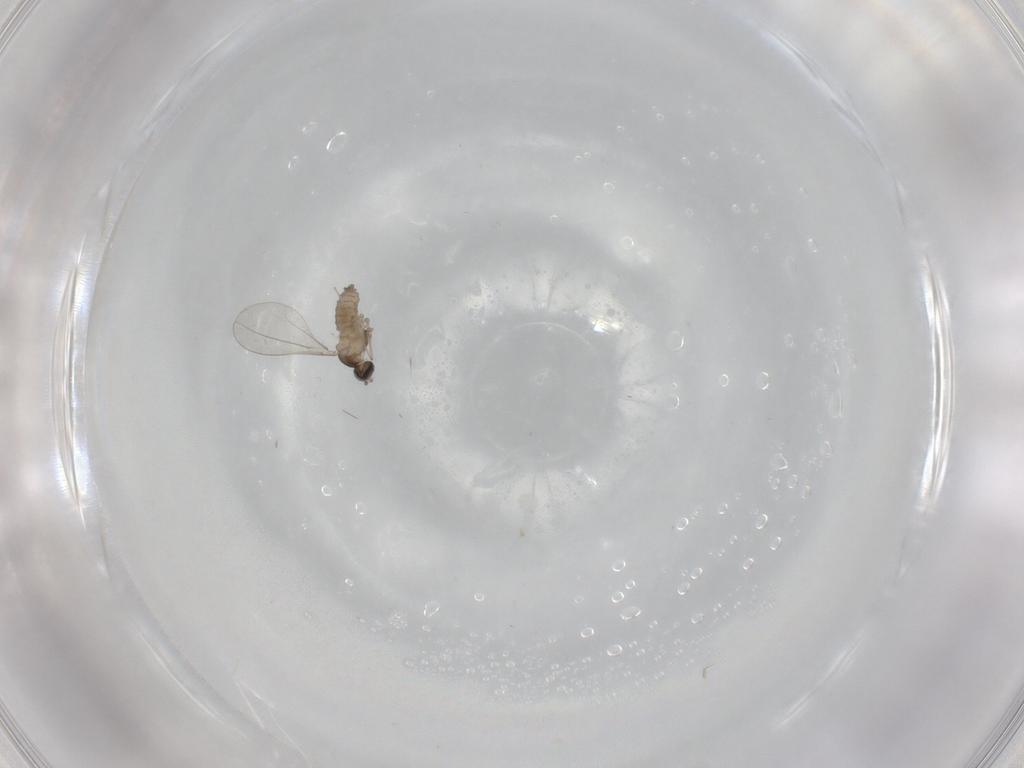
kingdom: Animalia
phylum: Arthropoda
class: Insecta
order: Diptera
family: Cecidomyiidae
